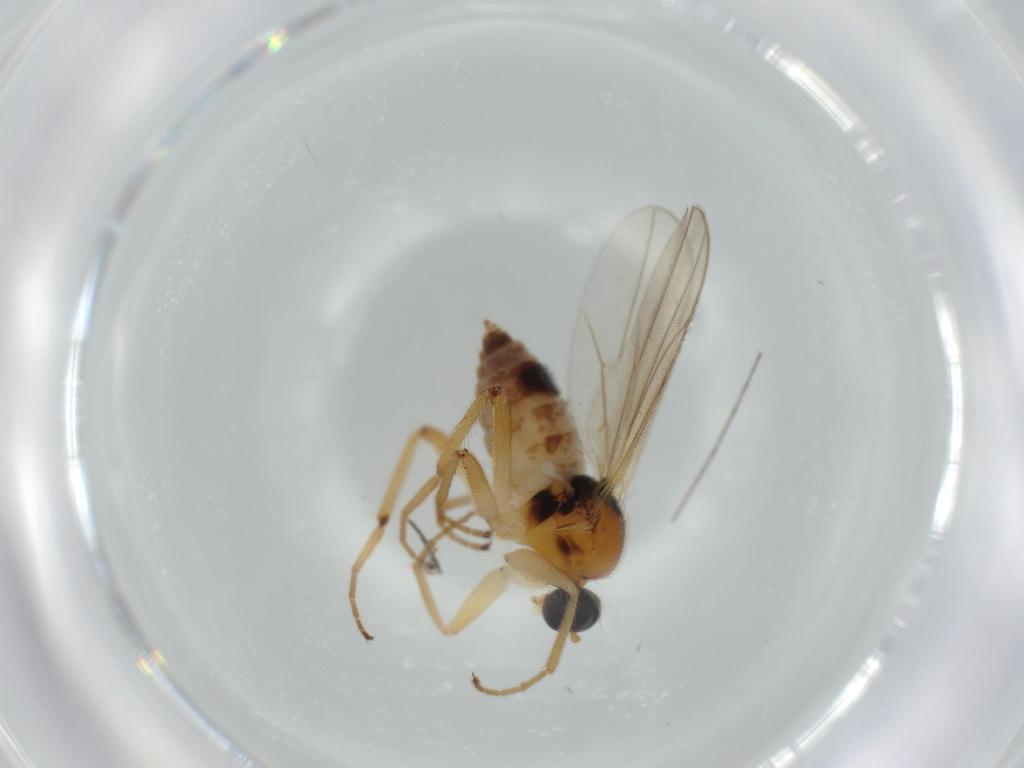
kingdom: Animalia
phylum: Arthropoda
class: Insecta
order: Diptera
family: Hybotidae
